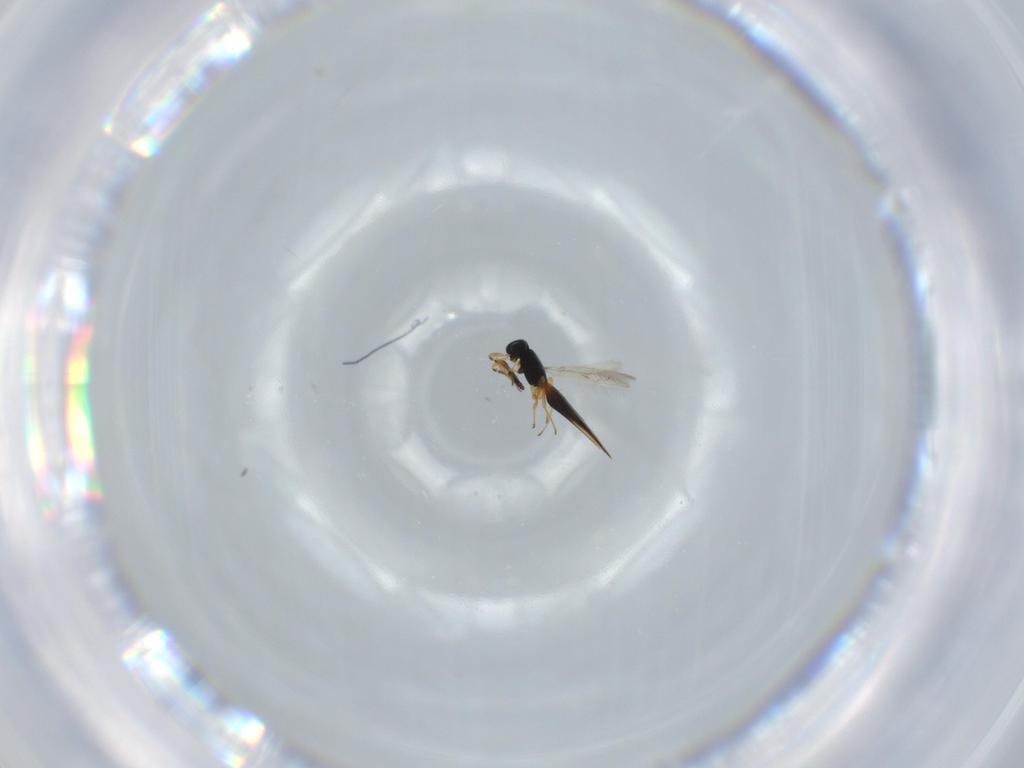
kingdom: Animalia
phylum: Arthropoda
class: Insecta
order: Hymenoptera
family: Scelionidae
